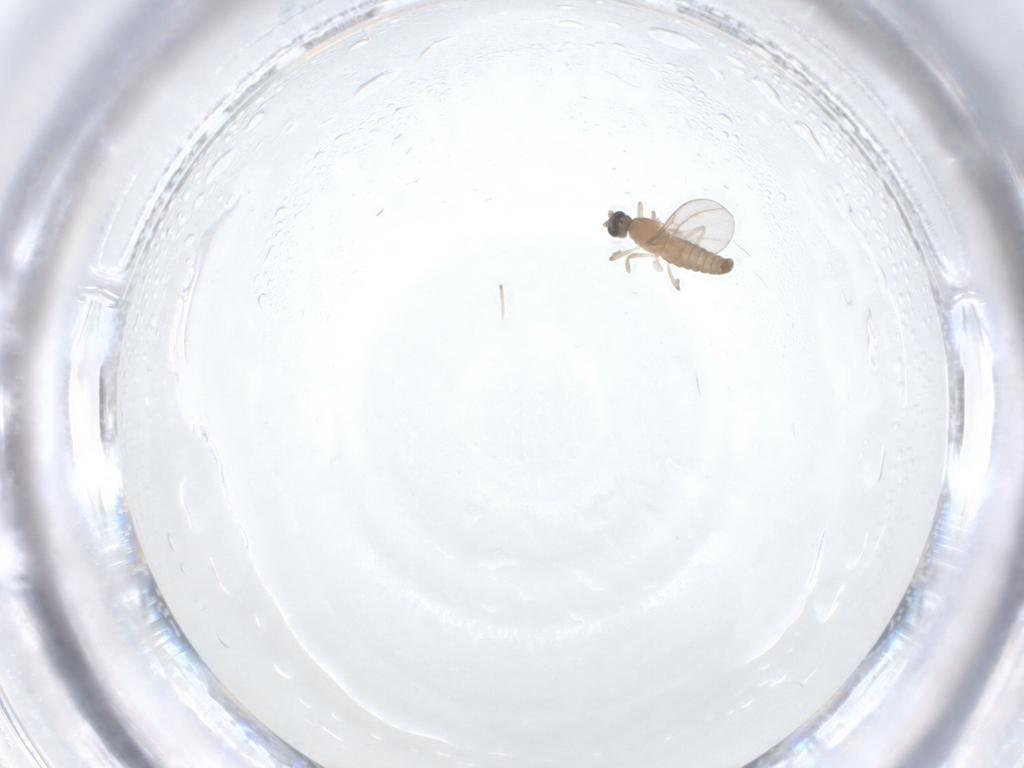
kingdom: Animalia
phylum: Arthropoda
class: Insecta
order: Diptera
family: Cecidomyiidae
